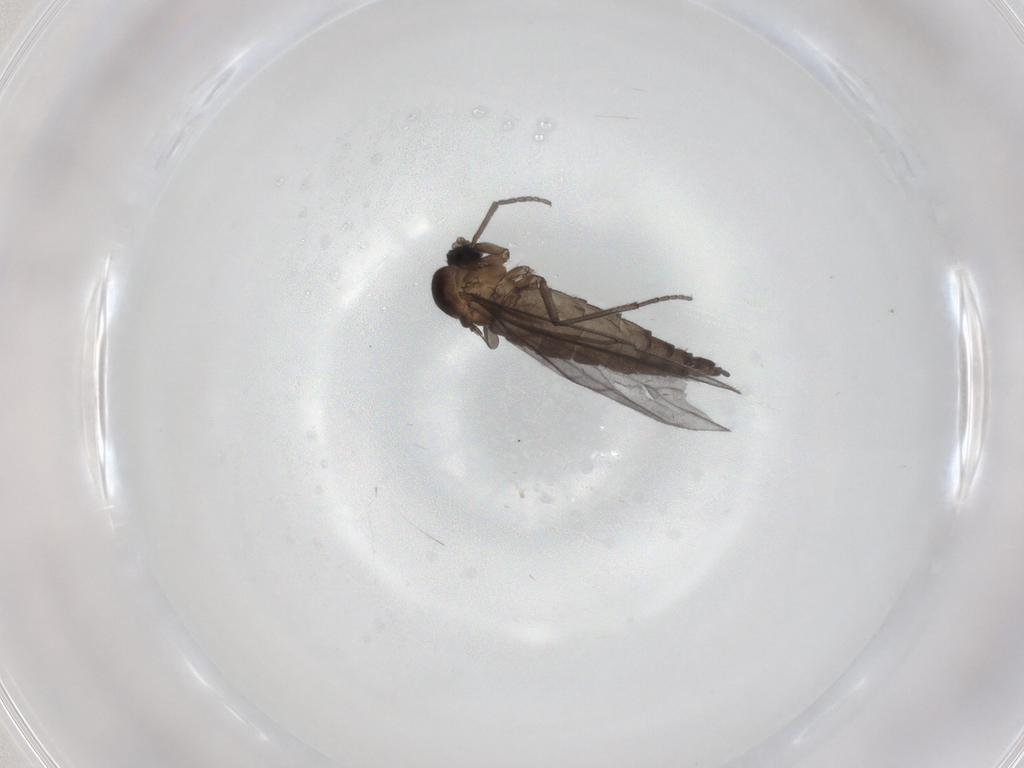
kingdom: Animalia
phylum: Arthropoda
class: Insecta
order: Diptera
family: Sciaridae
